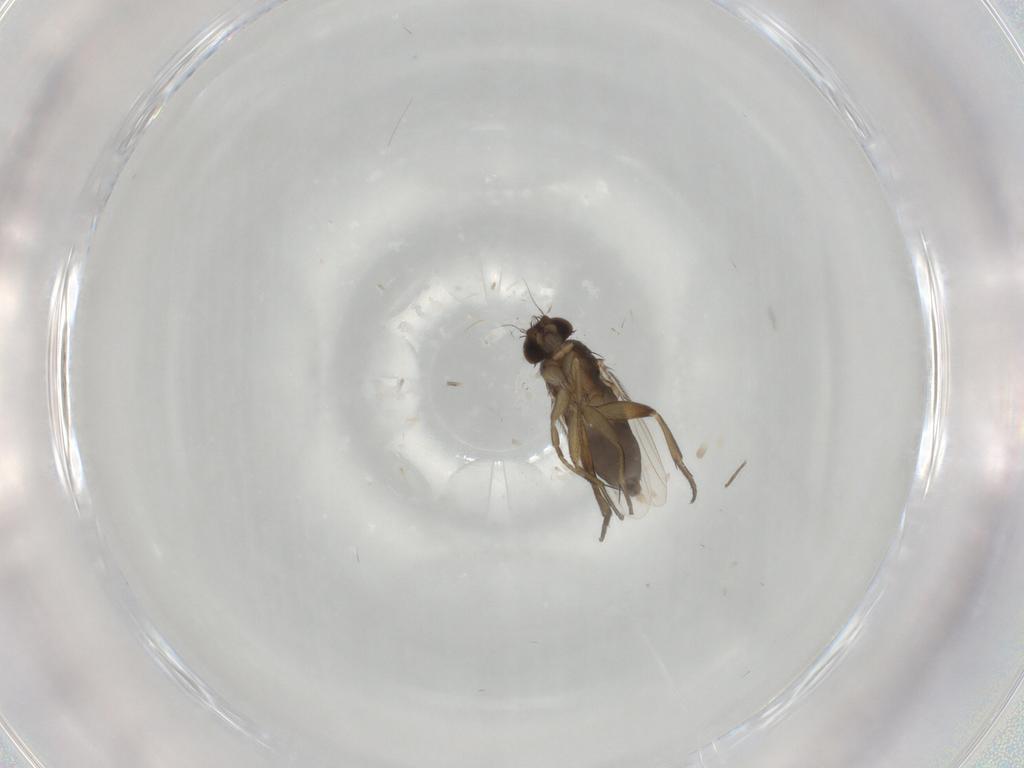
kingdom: Animalia
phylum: Arthropoda
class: Insecta
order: Diptera
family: Phoridae
